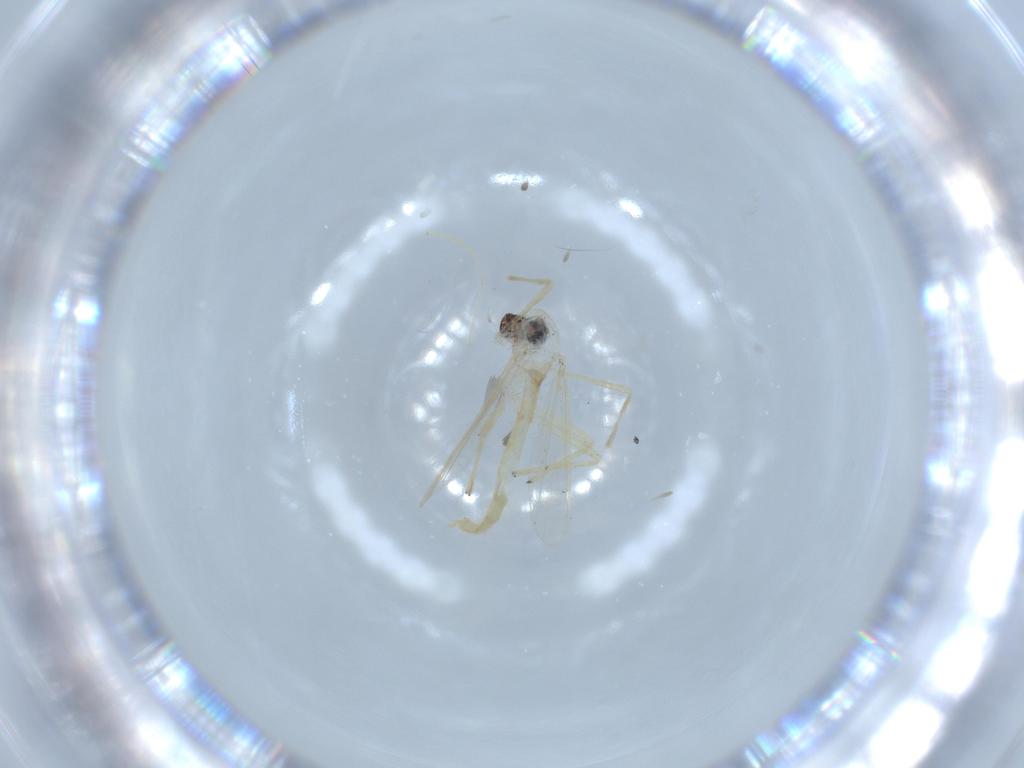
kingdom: Animalia
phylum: Arthropoda
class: Insecta
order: Diptera
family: Chironomidae
